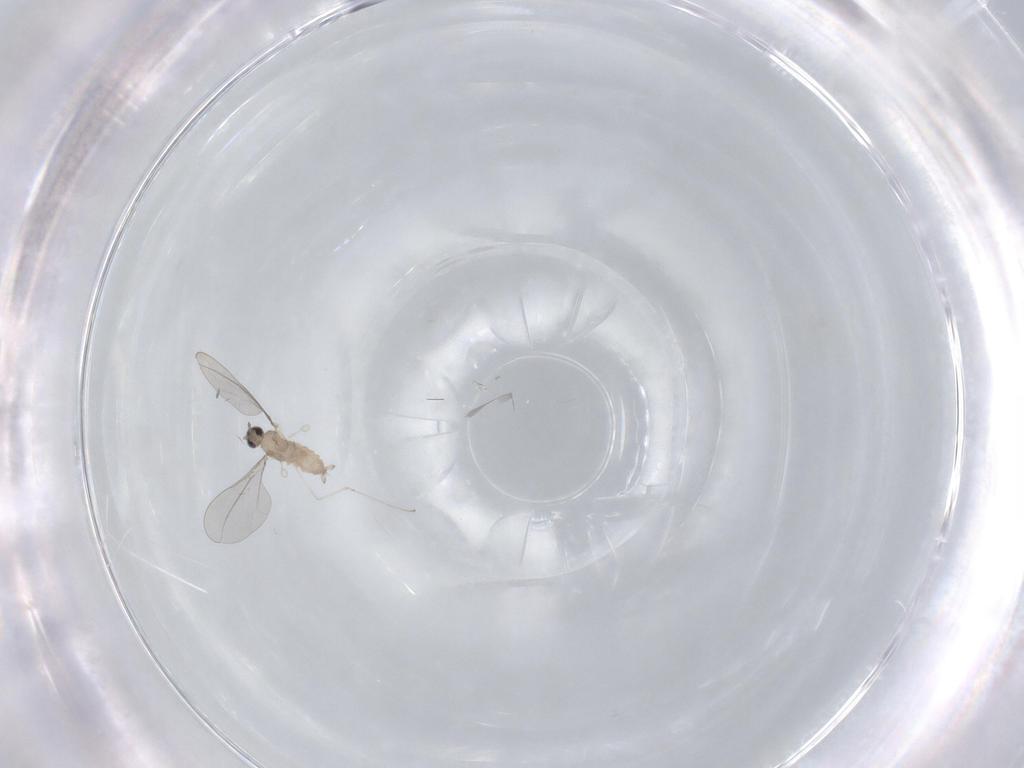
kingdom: Animalia
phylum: Arthropoda
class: Insecta
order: Diptera
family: Cecidomyiidae
